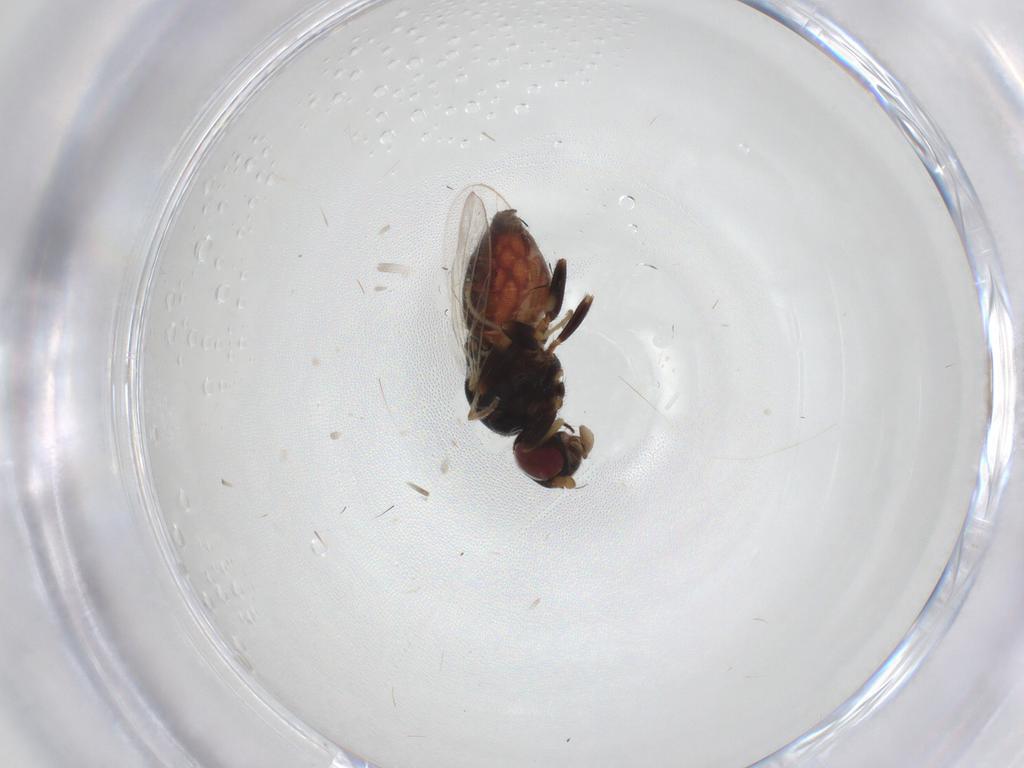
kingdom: Animalia
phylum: Arthropoda
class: Insecta
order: Diptera
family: Chloropidae
